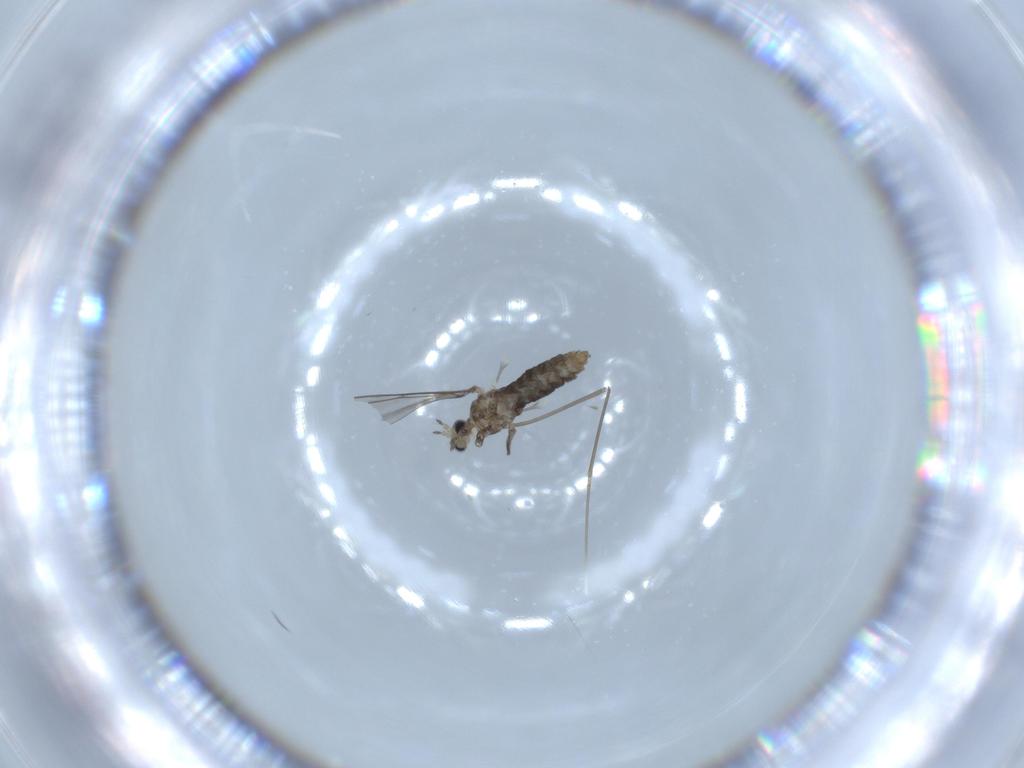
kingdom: Animalia
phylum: Arthropoda
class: Insecta
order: Diptera
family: Cecidomyiidae
